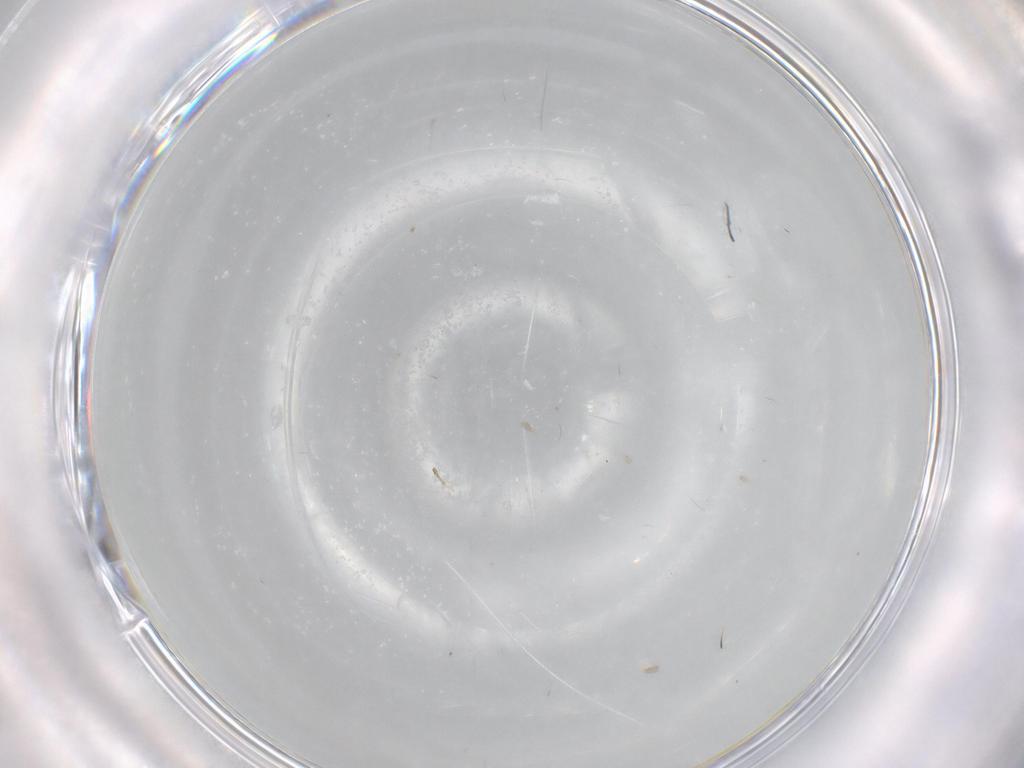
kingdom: Animalia
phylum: Arthropoda
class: Insecta
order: Diptera
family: Cecidomyiidae
